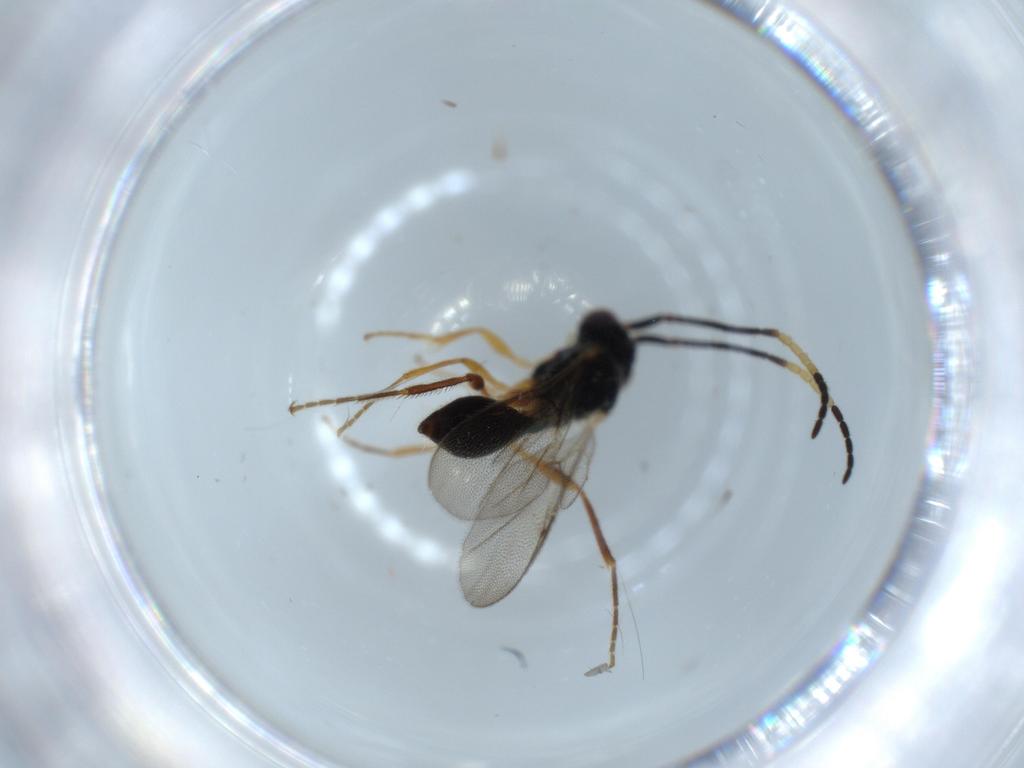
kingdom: Animalia
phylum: Arthropoda
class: Insecta
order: Hymenoptera
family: Diapriidae
